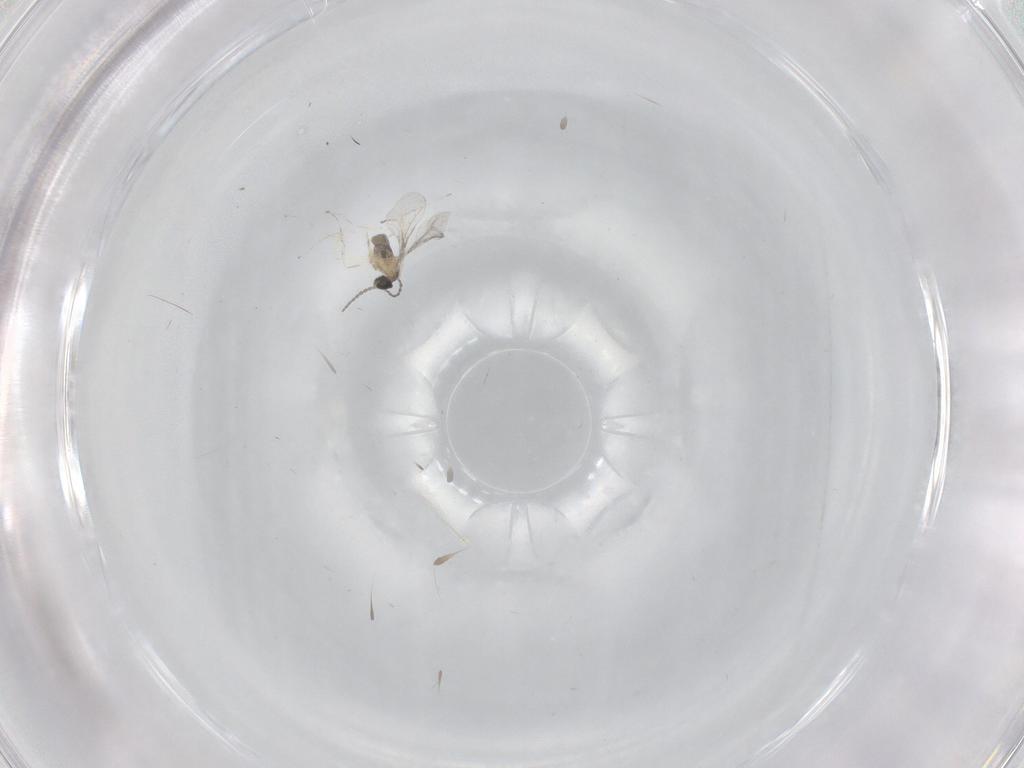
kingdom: Animalia
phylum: Arthropoda
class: Insecta
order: Diptera
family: Cecidomyiidae
